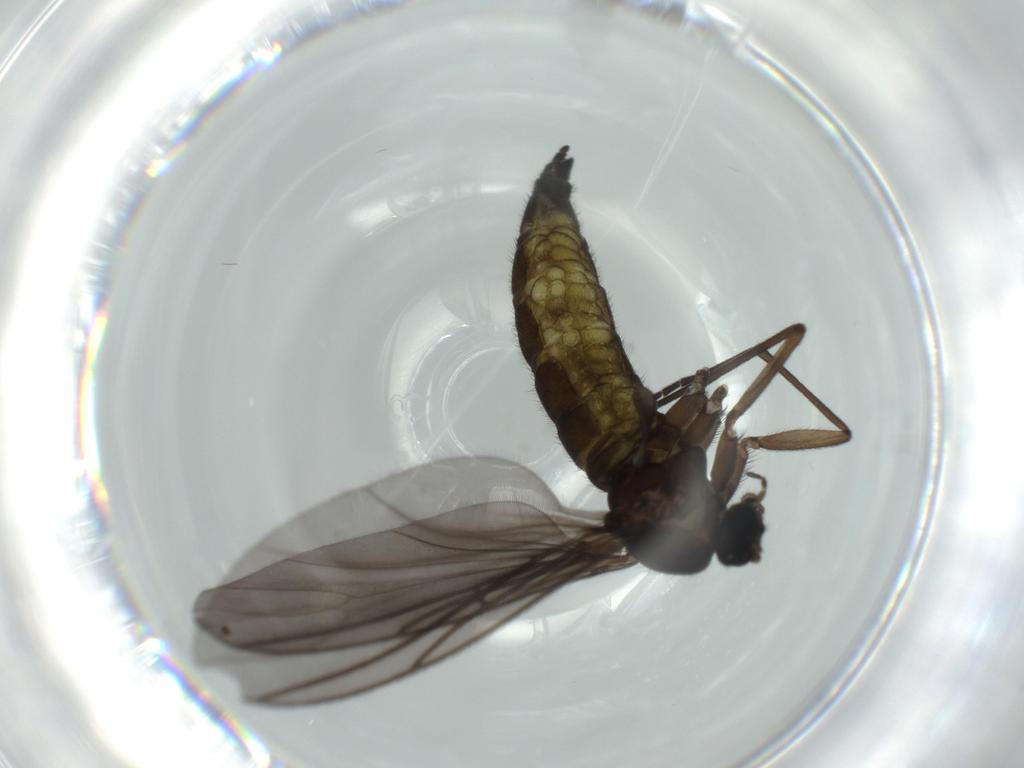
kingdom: Animalia
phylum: Arthropoda
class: Insecta
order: Diptera
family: Sciaridae
